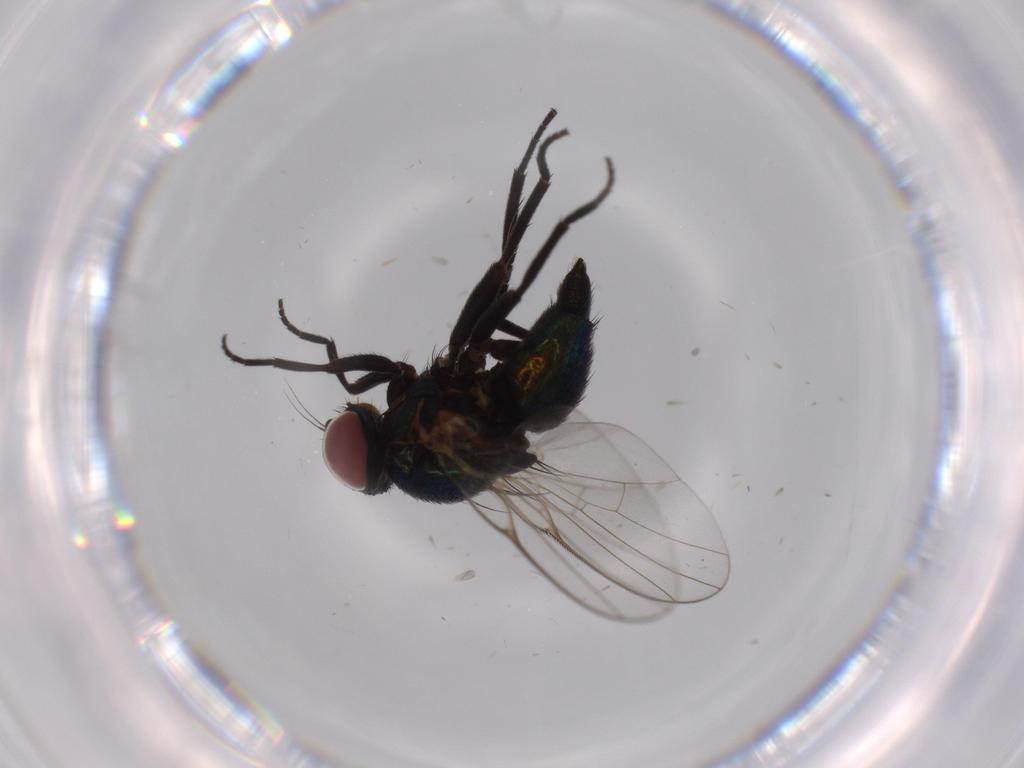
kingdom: Animalia
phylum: Arthropoda
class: Insecta
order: Diptera
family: Agromyzidae
